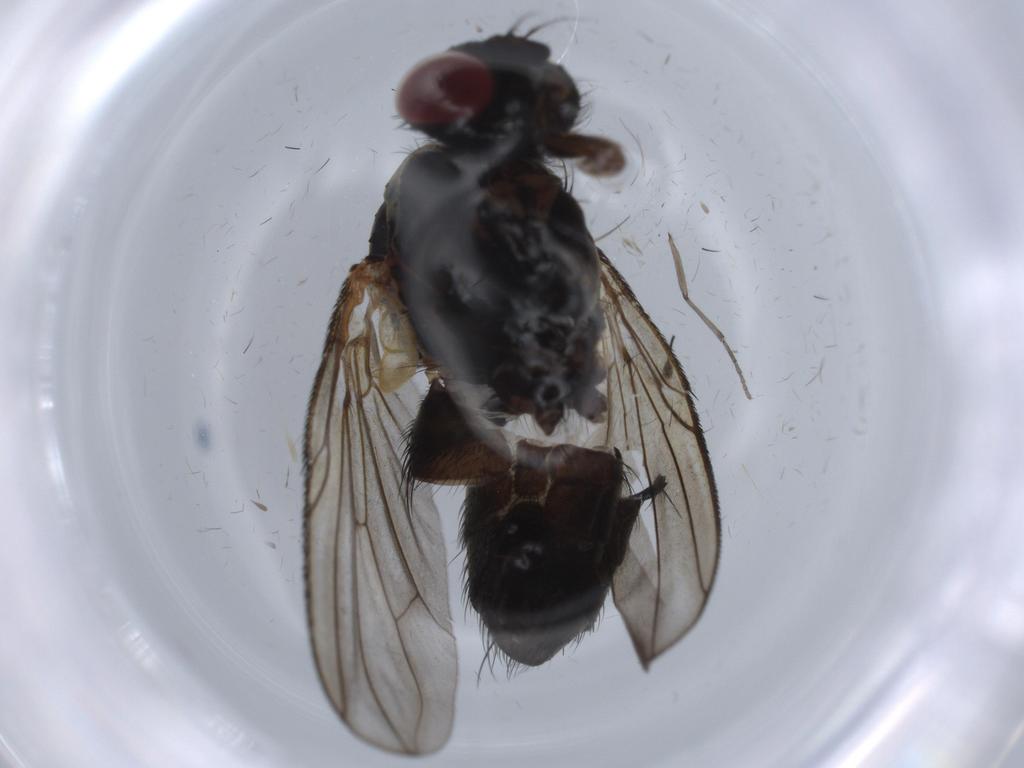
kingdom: Animalia
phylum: Arthropoda
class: Insecta
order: Diptera
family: Calliphoridae
